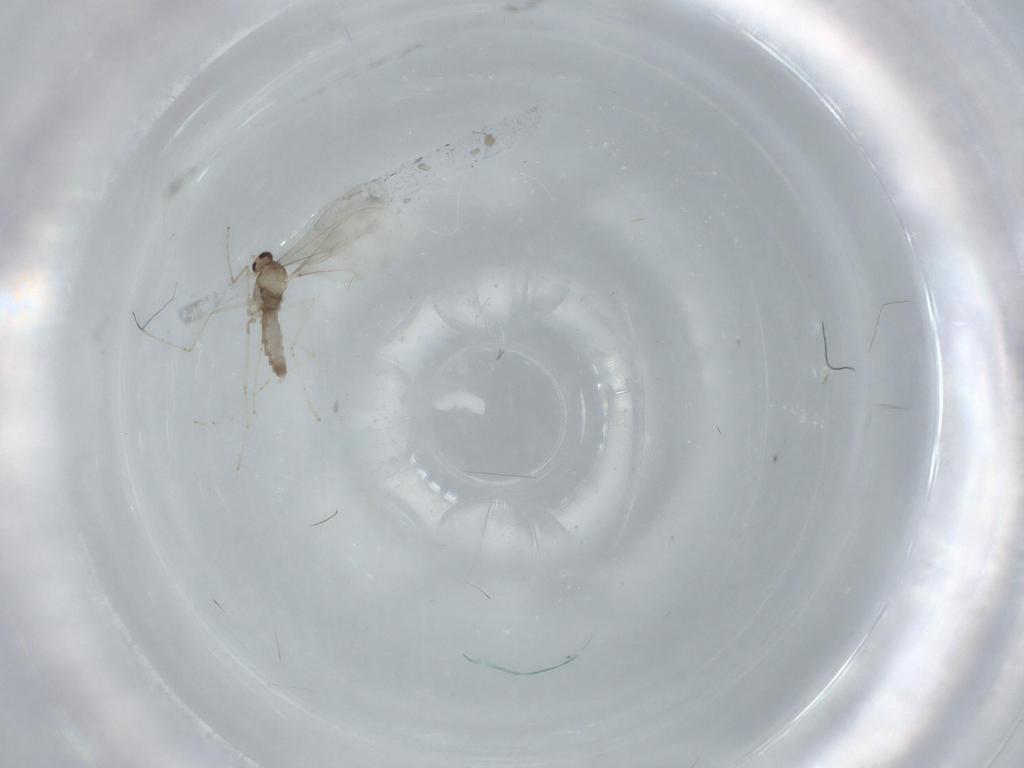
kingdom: Animalia
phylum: Arthropoda
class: Insecta
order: Diptera
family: Cecidomyiidae
